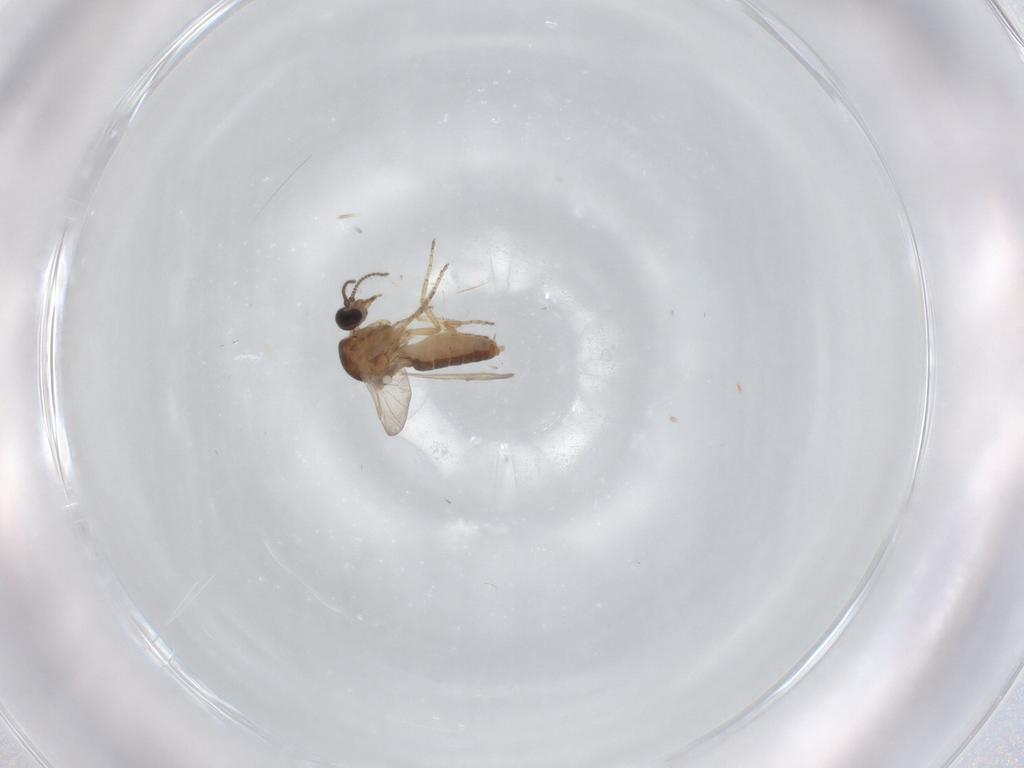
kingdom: Animalia
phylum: Arthropoda
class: Insecta
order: Diptera
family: Ceratopogonidae
